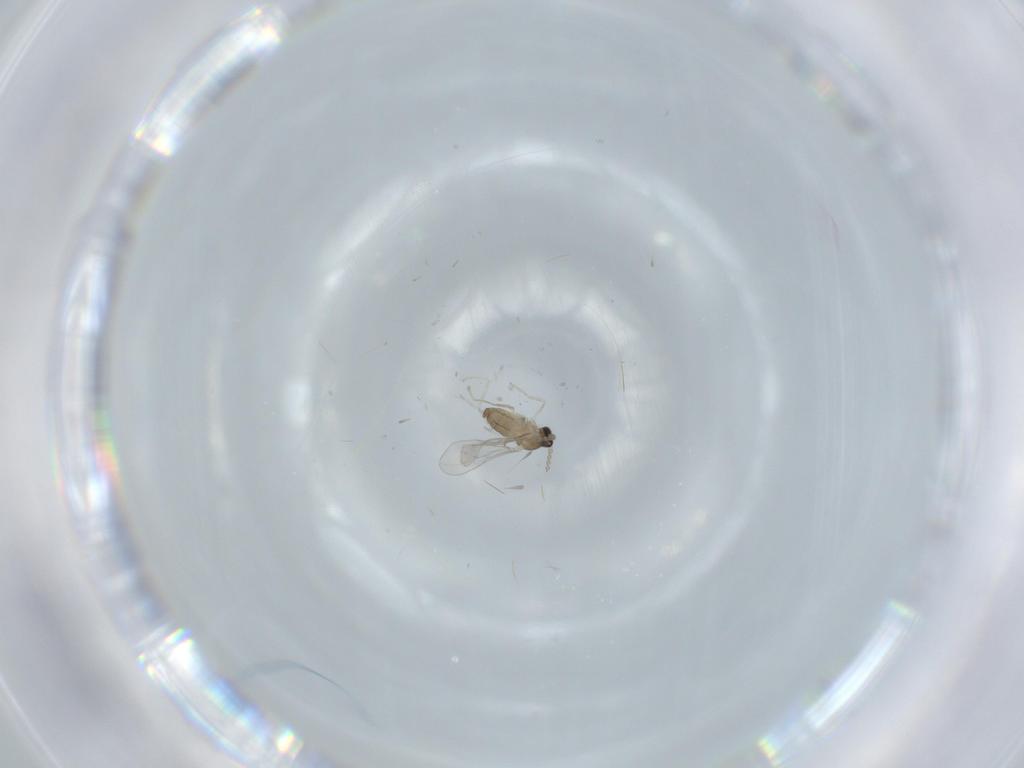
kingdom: Animalia
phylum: Arthropoda
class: Insecta
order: Diptera
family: Cecidomyiidae
